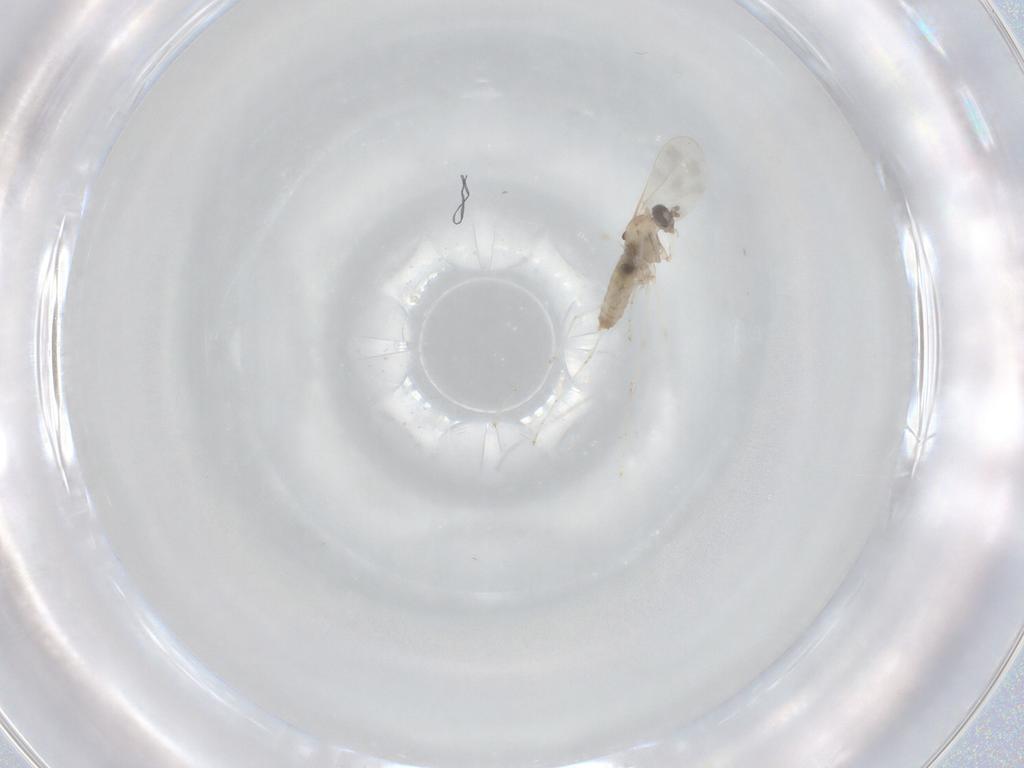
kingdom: Animalia
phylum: Arthropoda
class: Insecta
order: Diptera
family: Cecidomyiidae
